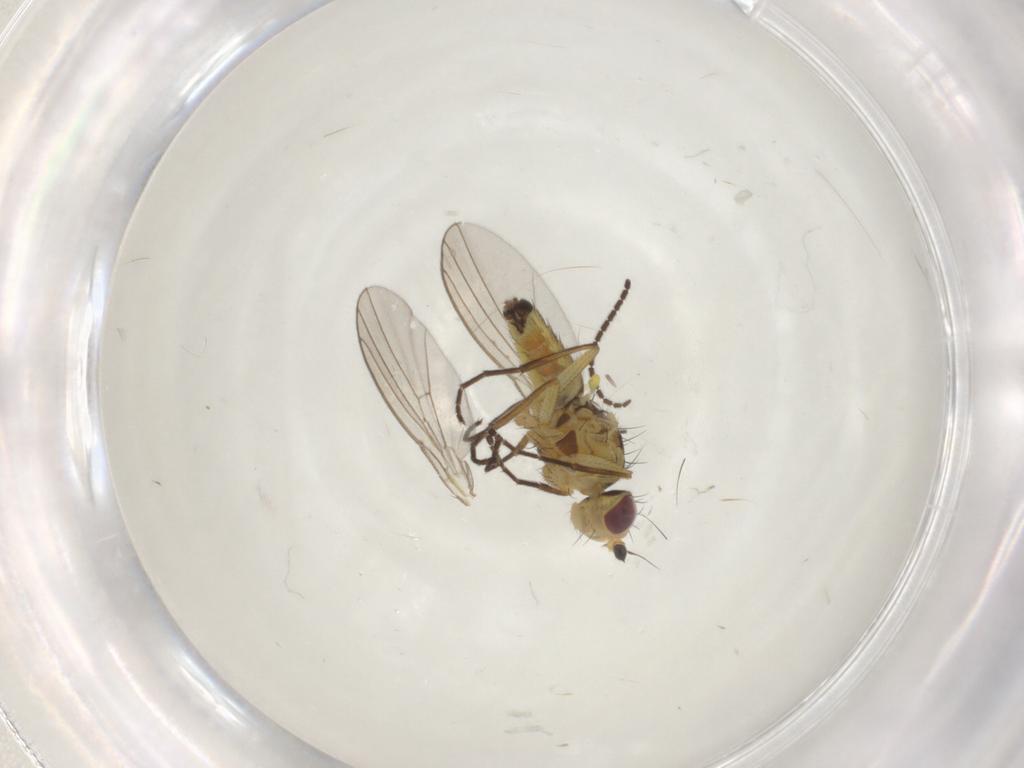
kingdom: Animalia
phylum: Arthropoda
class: Insecta
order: Diptera
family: Agromyzidae
